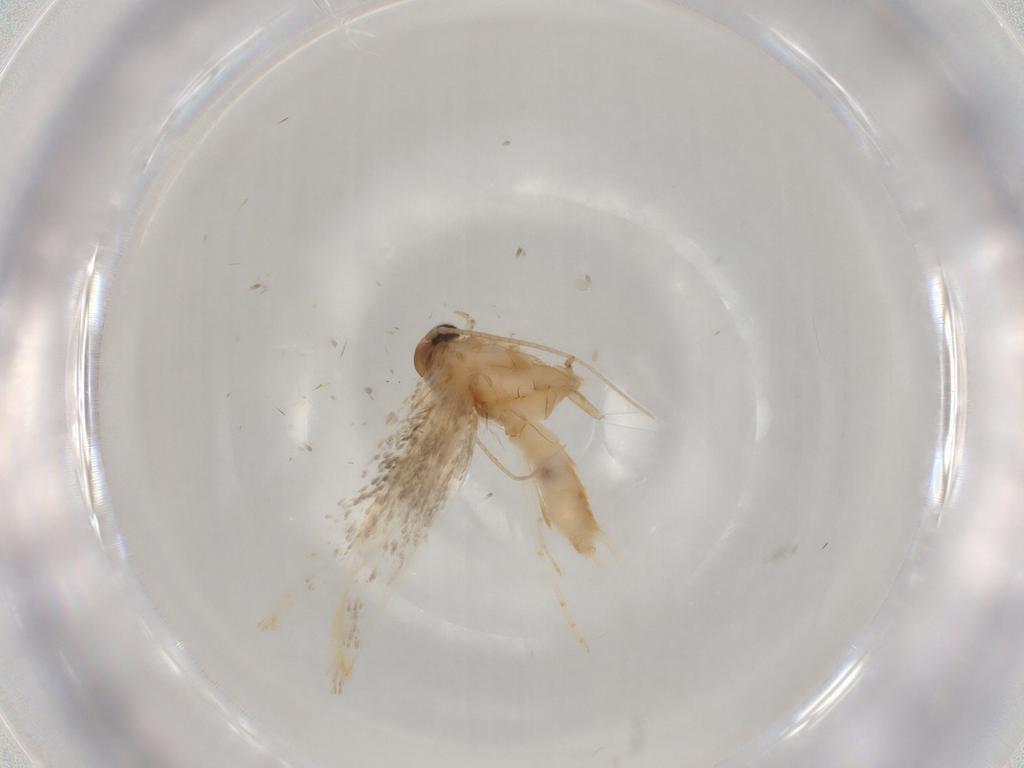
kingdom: Animalia
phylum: Arthropoda
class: Insecta
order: Lepidoptera
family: Elachistidae
